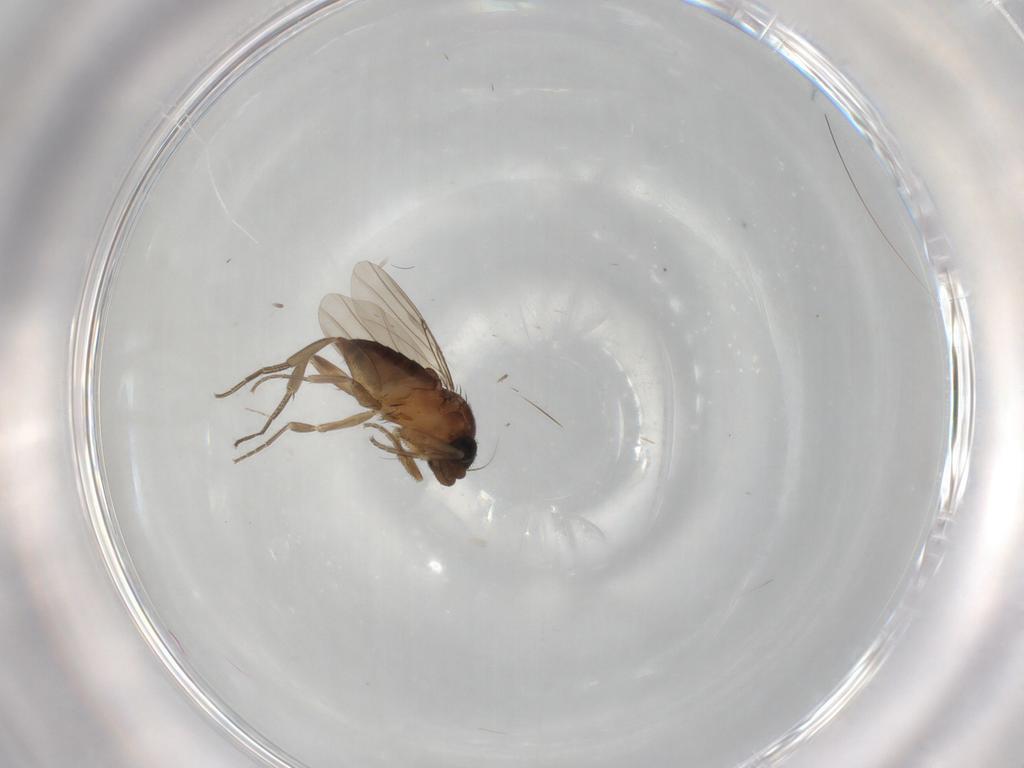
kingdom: Animalia
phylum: Arthropoda
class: Insecta
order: Diptera
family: Phoridae
